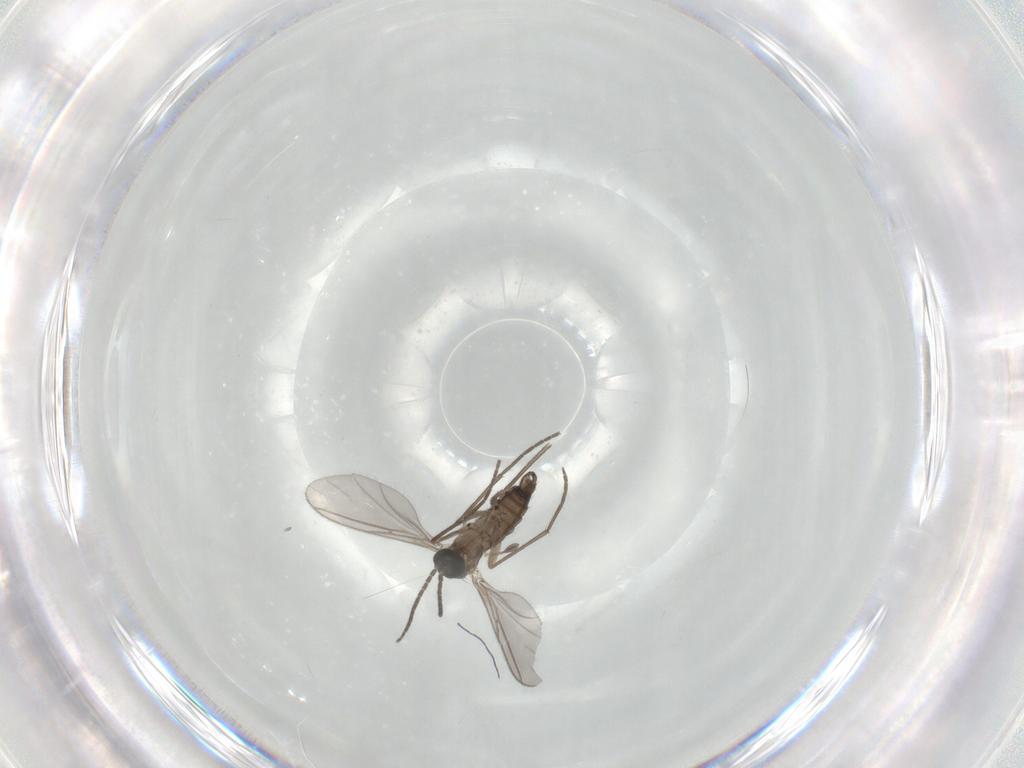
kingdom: Animalia
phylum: Arthropoda
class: Insecta
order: Diptera
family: Sciaridae
